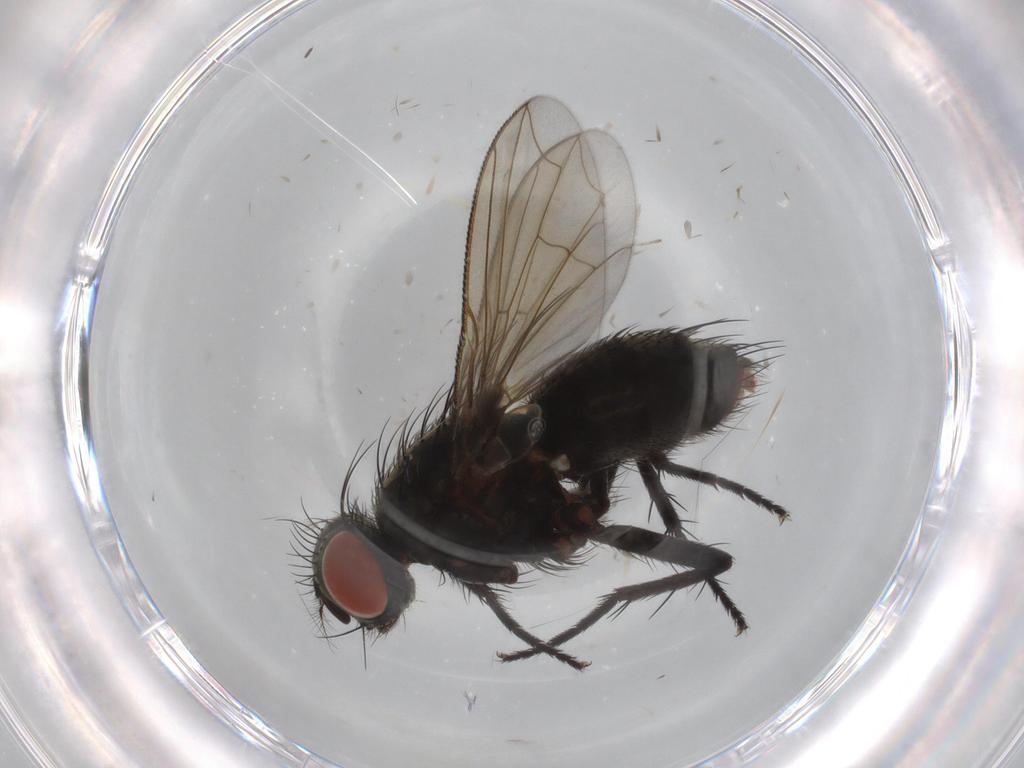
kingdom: Animalia
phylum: Arthropoda
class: Insecta
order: Diptera
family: Sarcophagidae
